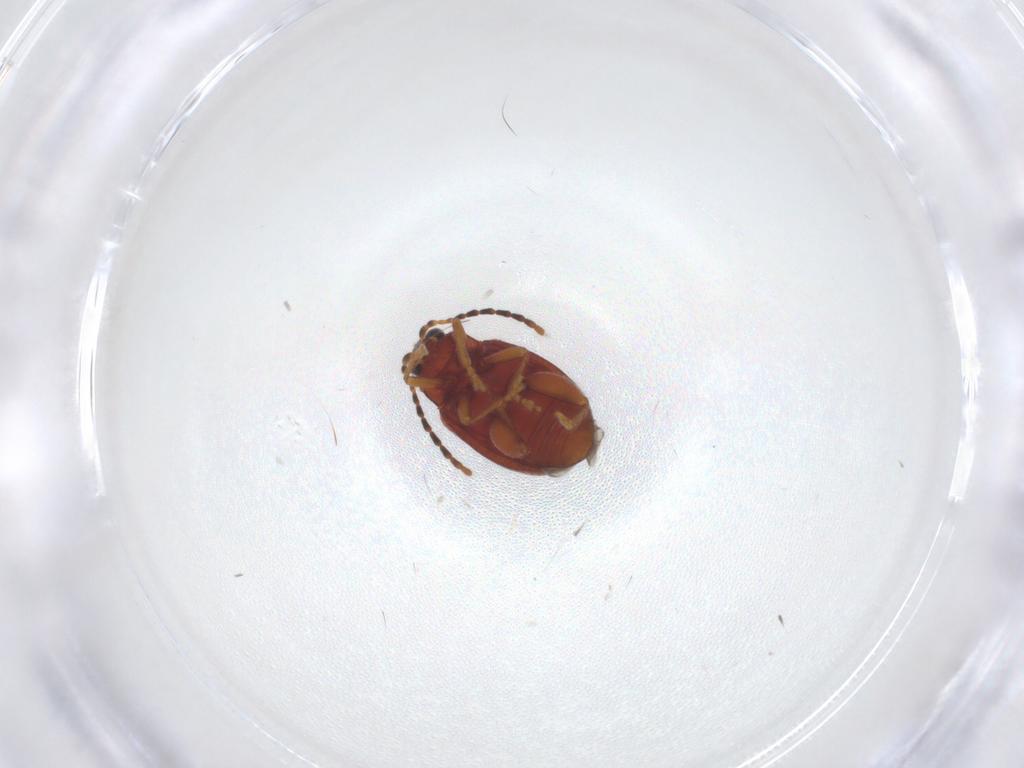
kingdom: Animalia
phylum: Arthropoda
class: Insecta
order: Coleoptera
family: Chrysomelidae
